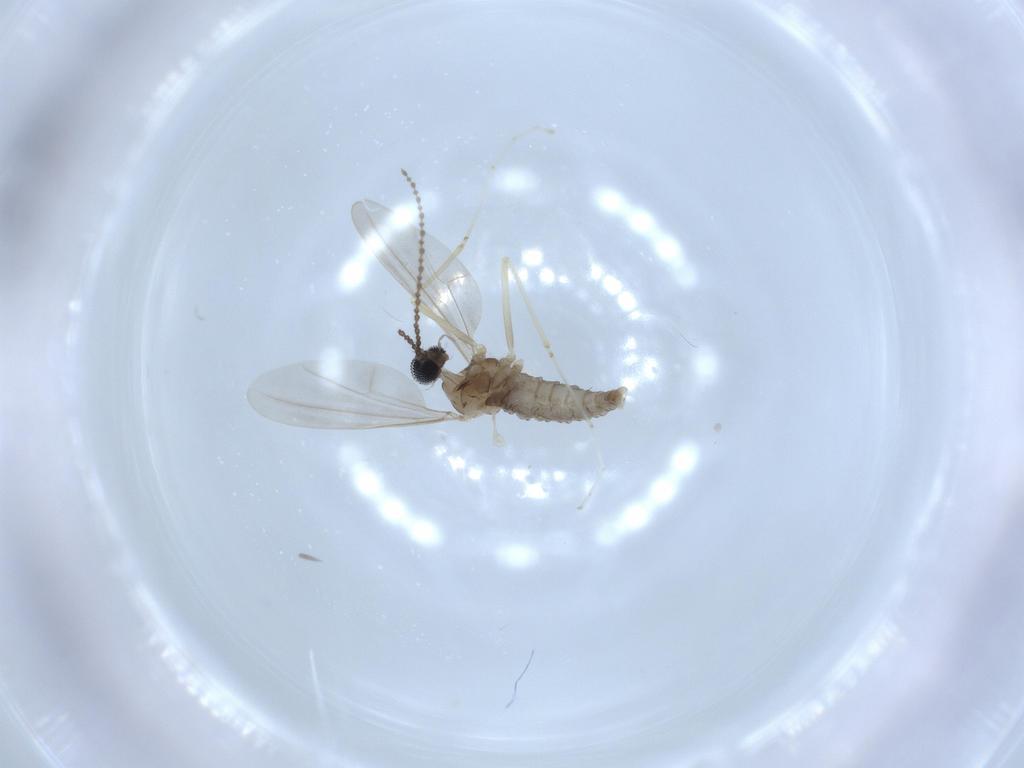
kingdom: Animalia
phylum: Arthropoda
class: Insecta
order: Diptera
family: Cecidomyiidae
